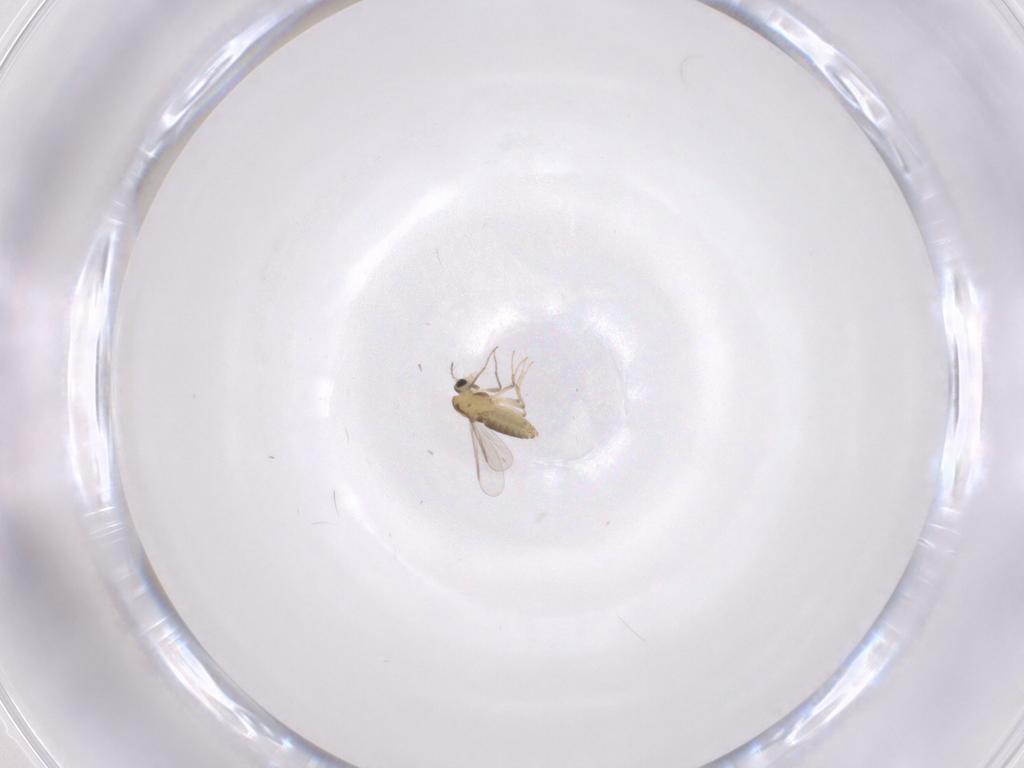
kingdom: Animalia
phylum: Arthropoda
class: Insecta
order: Diptera
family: Chironomidae
